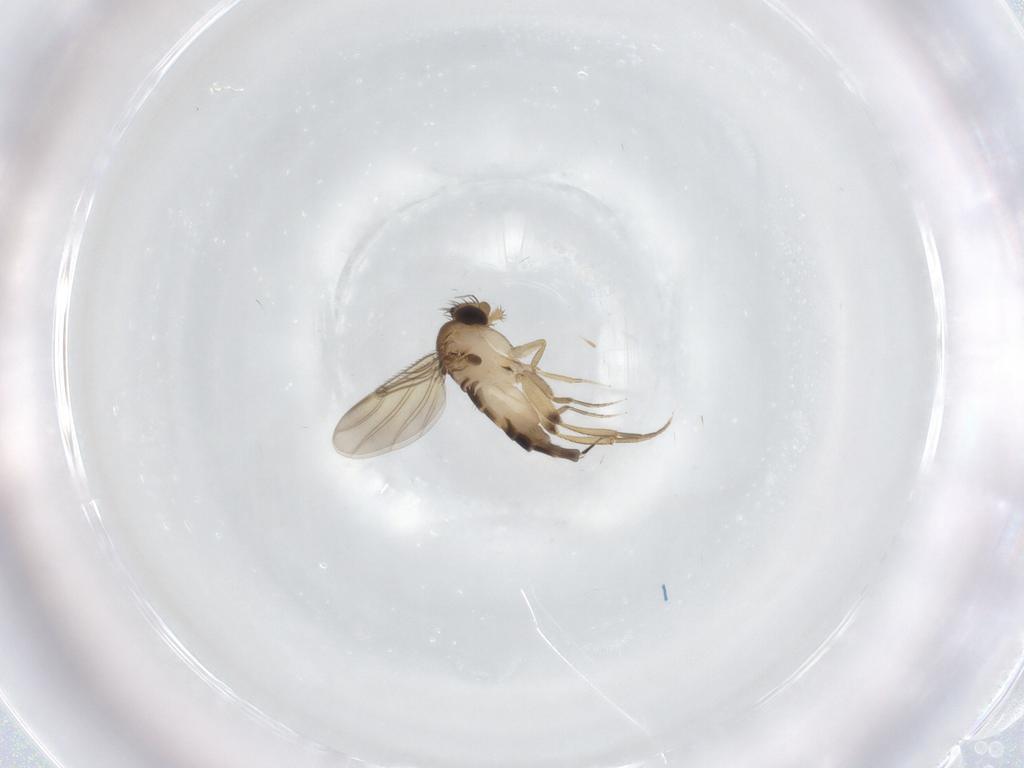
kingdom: Animalia
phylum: Arthropoda
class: Insecta
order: Diptera
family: Phoridae
